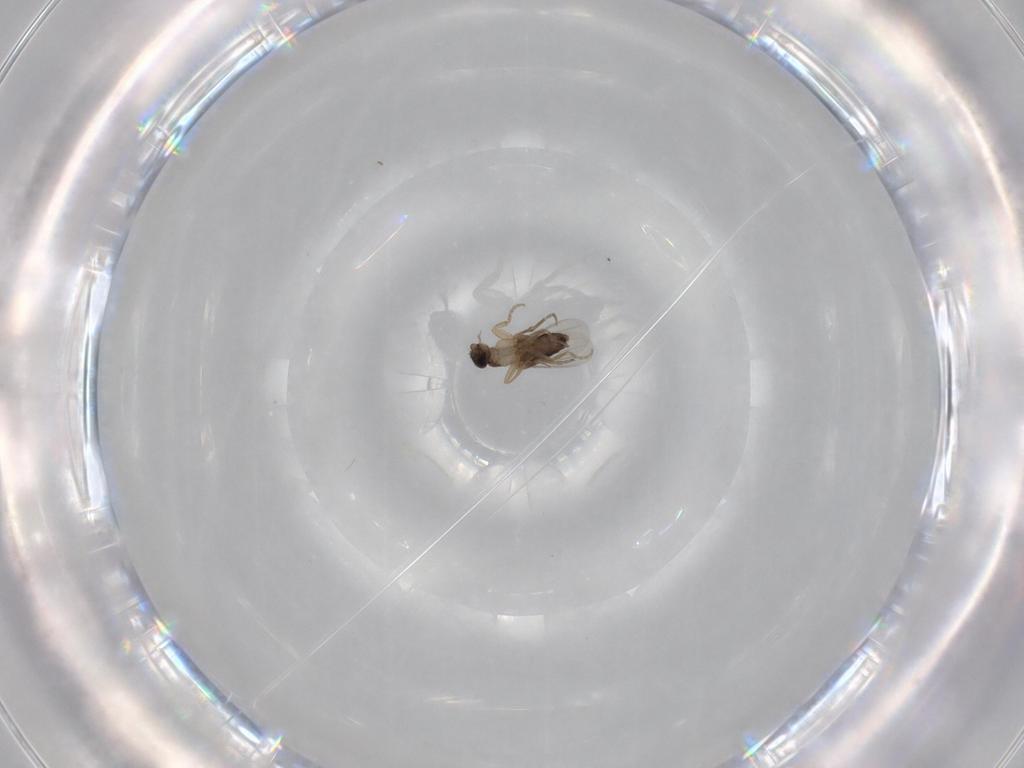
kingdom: Animalia
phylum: Arthropoda
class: Insecta
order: Diptera
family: Phoridae
